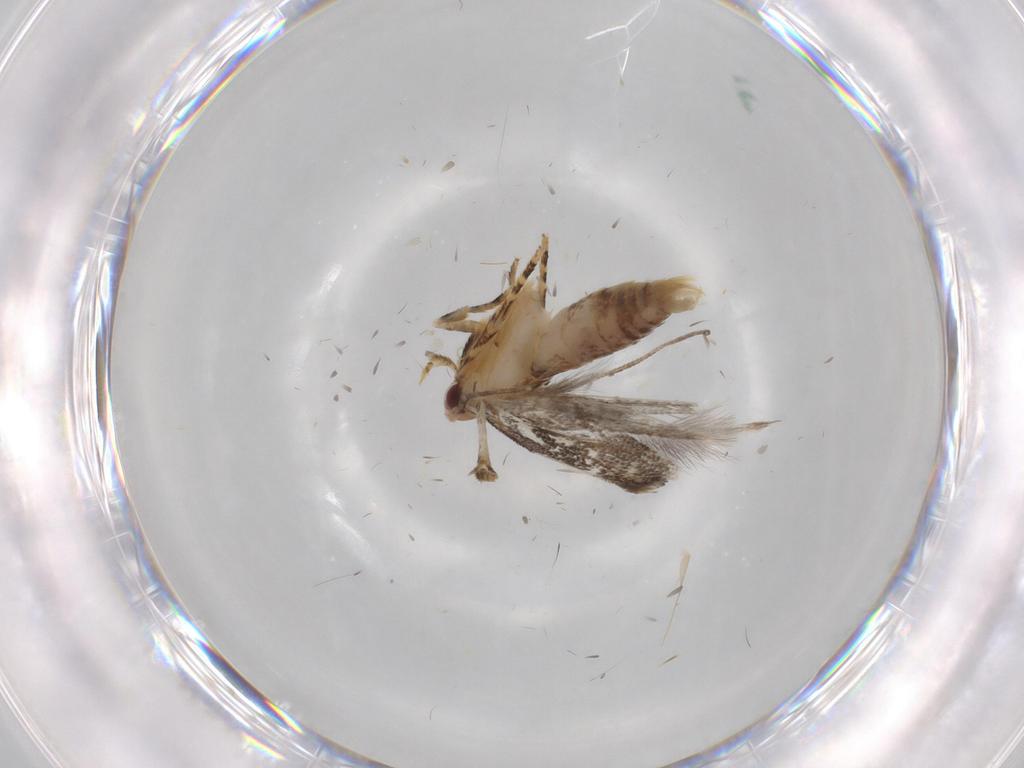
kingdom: Animalia
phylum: Arthropoda
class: Insecta
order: Lepidoptera
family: Momphidae
